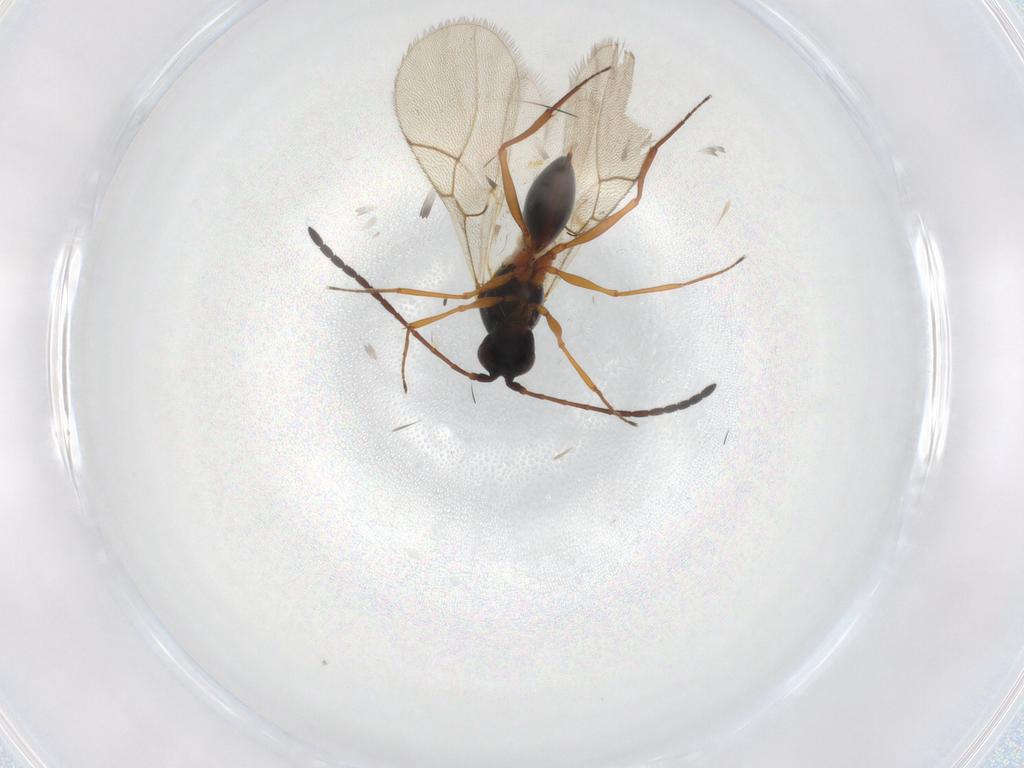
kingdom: Animalia
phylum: Arthropoda
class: Insecta
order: Hymenoptera
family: Figitidae
